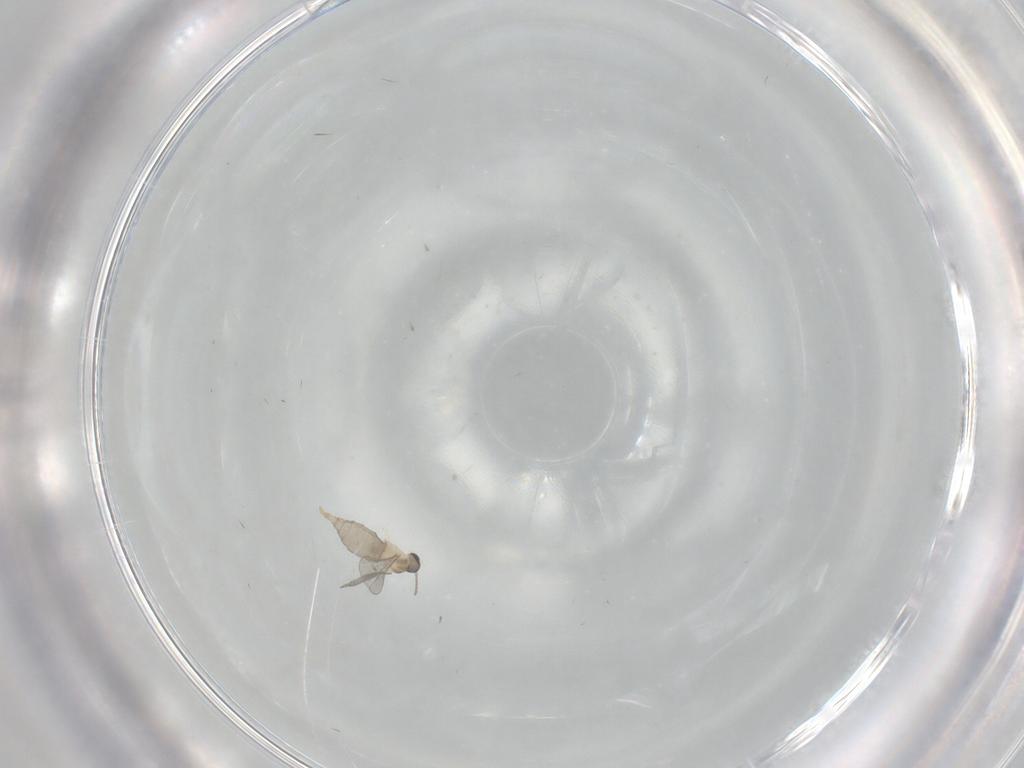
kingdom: Animalia
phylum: Arthropoda
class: Insecta
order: Diptera
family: Cecidomyiidae
